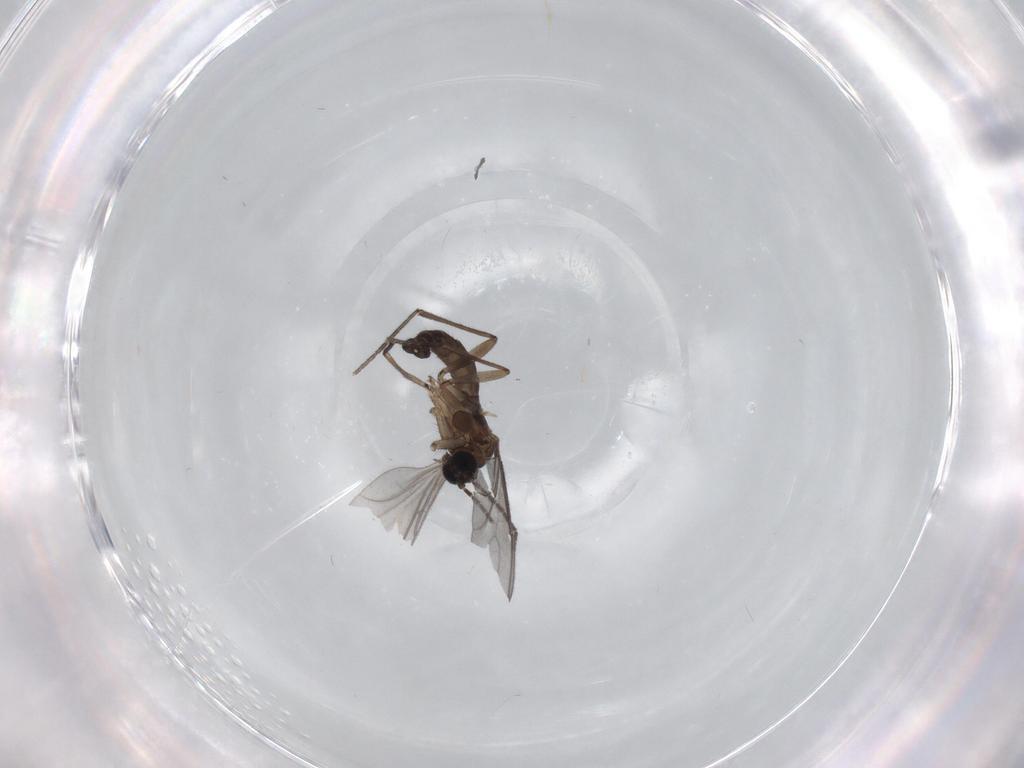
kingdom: Animalia
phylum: Arthropoda
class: Insecta
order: Diptera
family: Sciaridae
